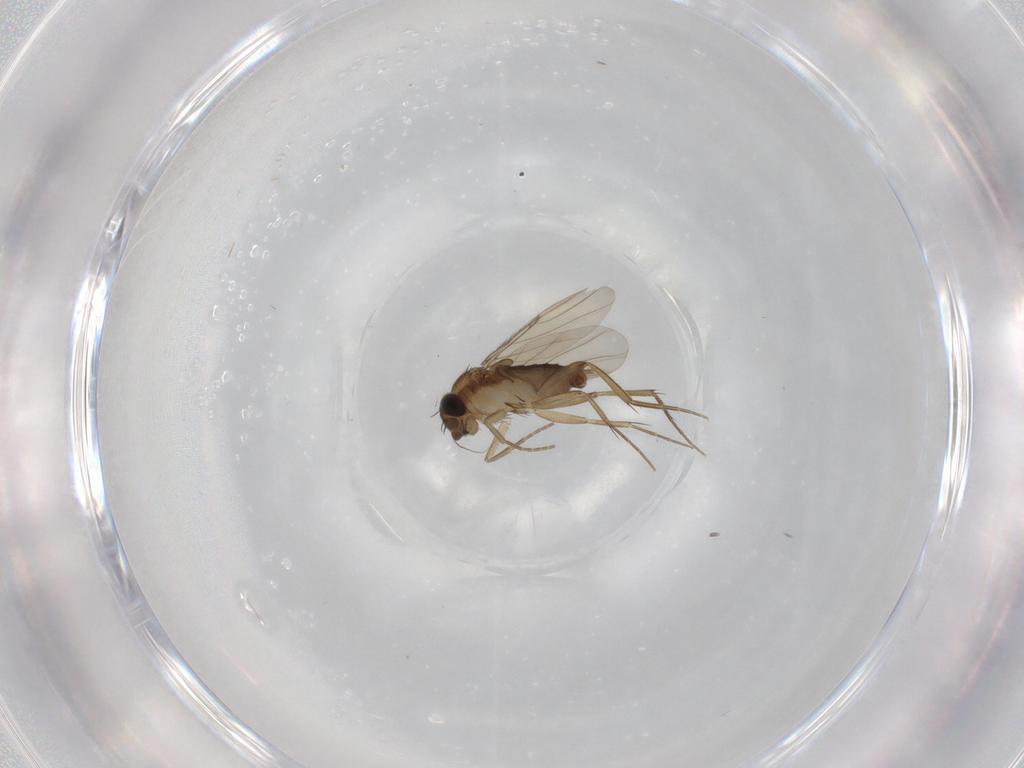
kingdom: Animalia
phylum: Arthropoda
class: Insecta
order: Diptera
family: Phoridae
